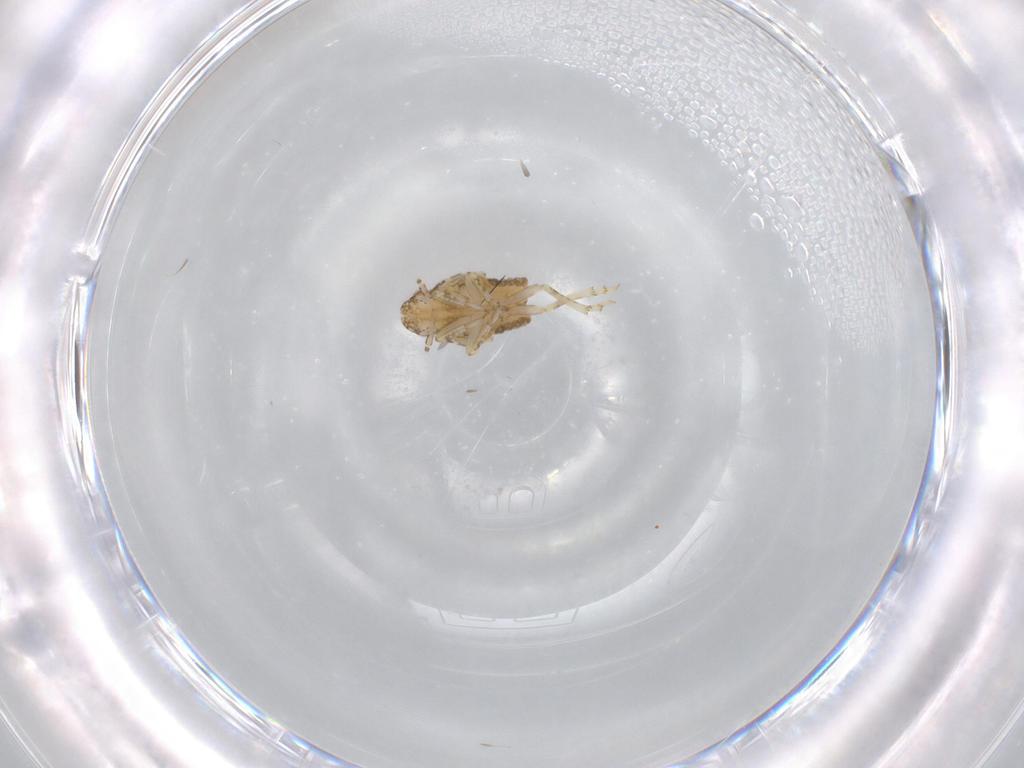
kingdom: Animalia
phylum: Arthropoda
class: Insecta
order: Hemiptera
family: Flatidae
